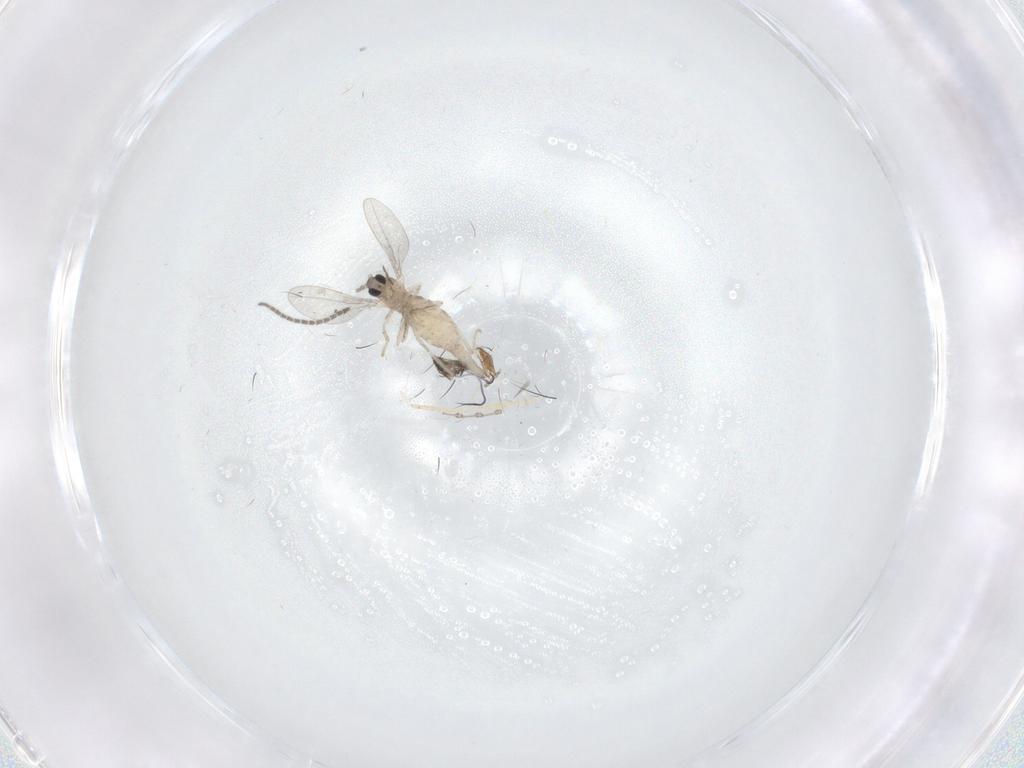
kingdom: Animalia
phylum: Arthropoda
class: Insecta
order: Diptera
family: Sciaridae
